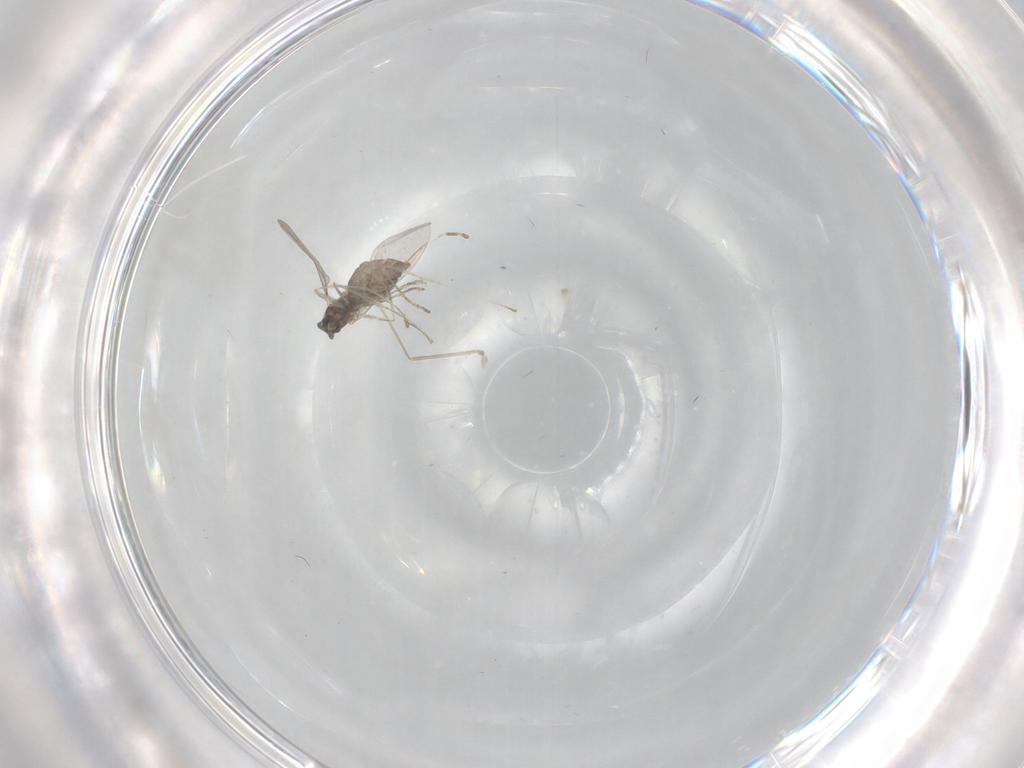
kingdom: Animalia
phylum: Arthropoda
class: Insecta
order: Diptera
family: Cecidomyiidae
